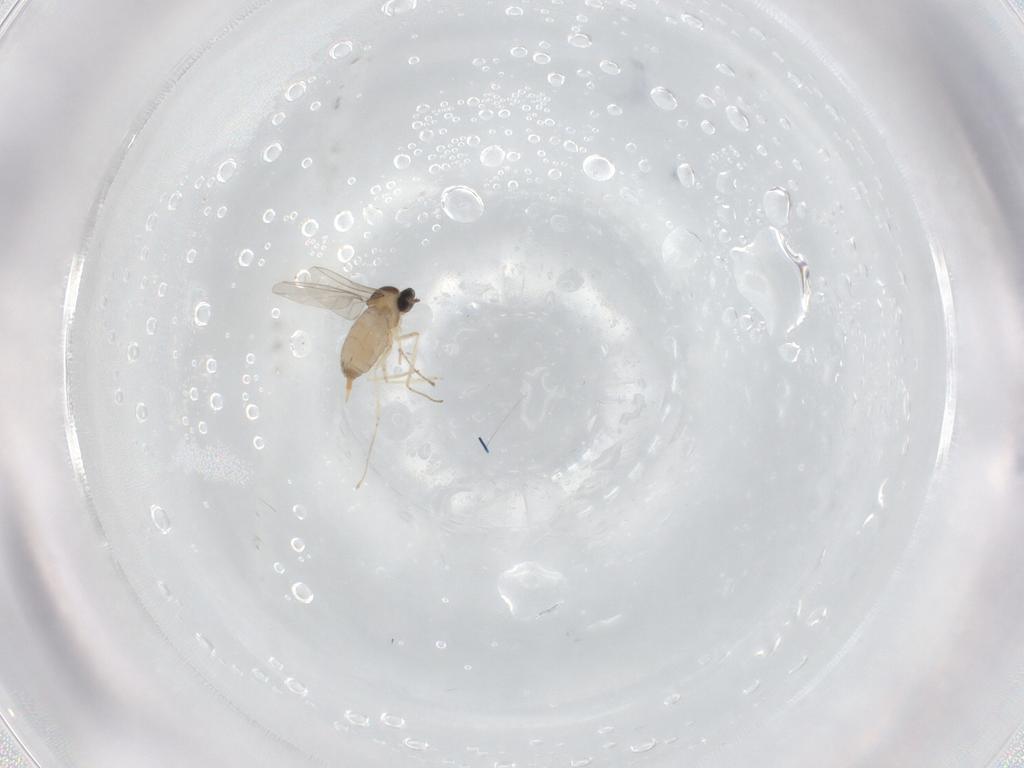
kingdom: Animalia
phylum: Arthropoda
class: Insecta
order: Diptera
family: Cecidomyiidae
